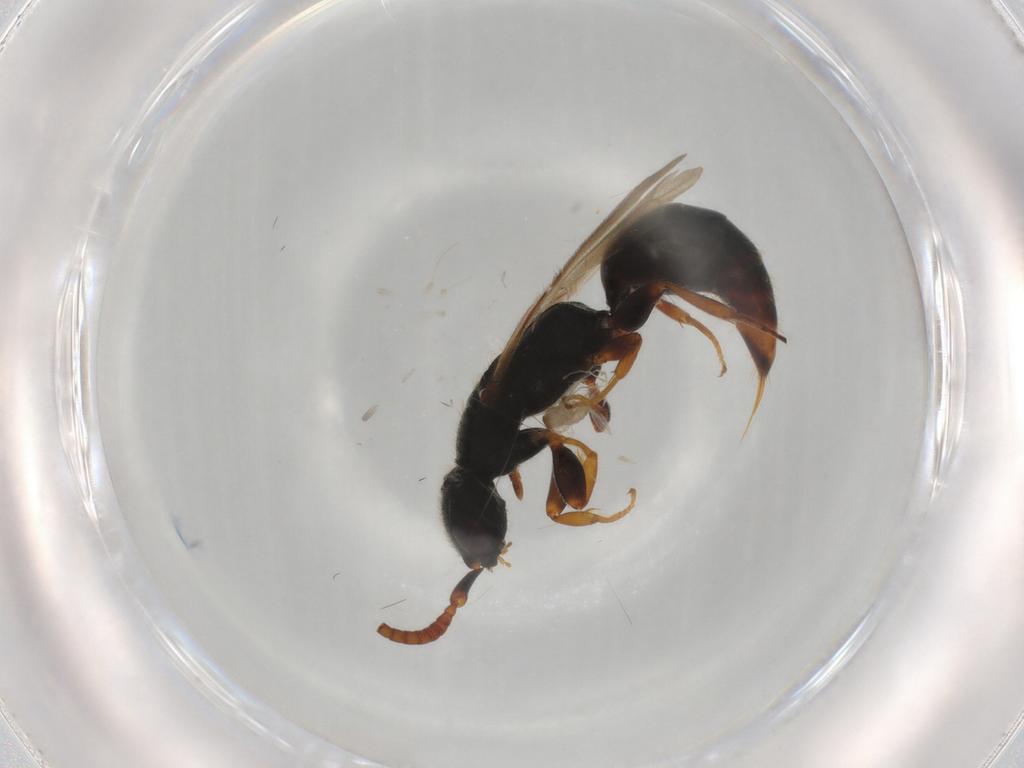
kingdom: Animalia
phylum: Arthropoda
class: Insecta
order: Hymenoptera
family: Bethylidae
